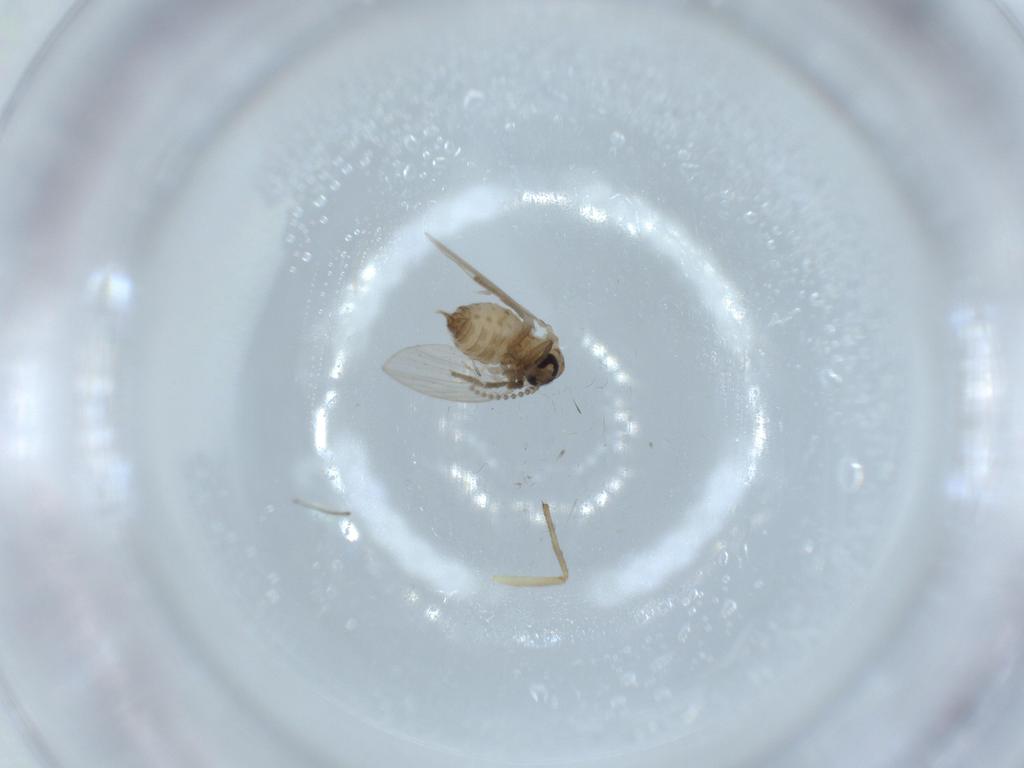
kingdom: Animalia
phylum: Arthropoda
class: Insecta
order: Diptera
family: Psychodidae
